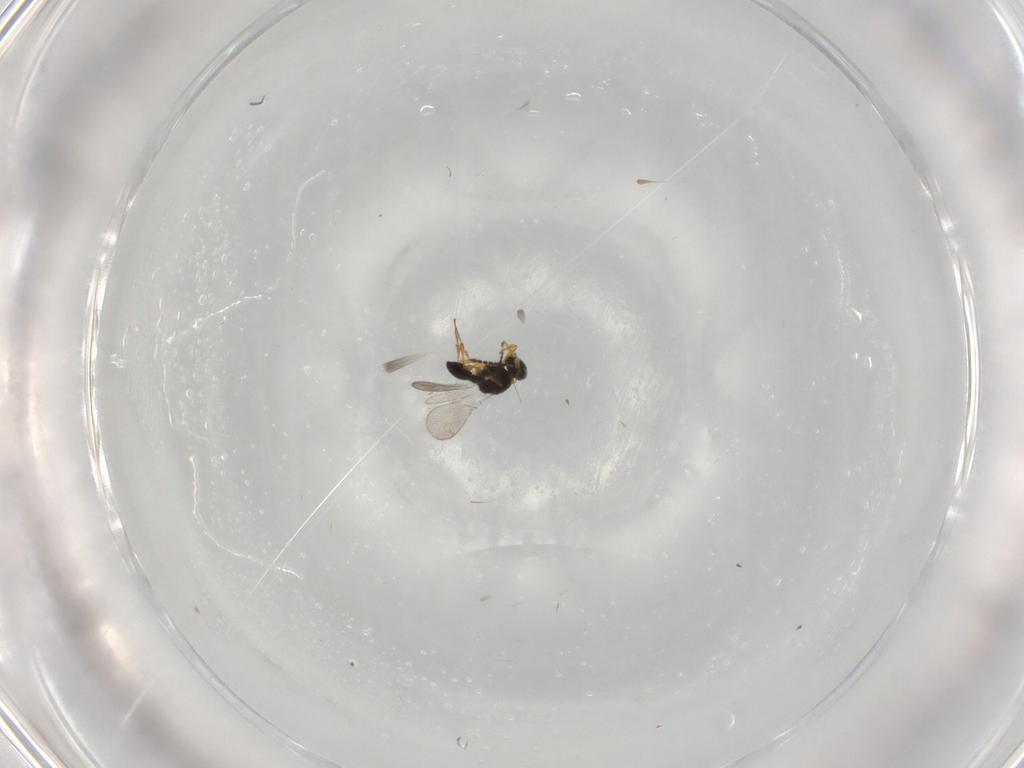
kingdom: Animalia
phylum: Arthropoda
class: Insecta
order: Hymenoptera
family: Platygastridae
